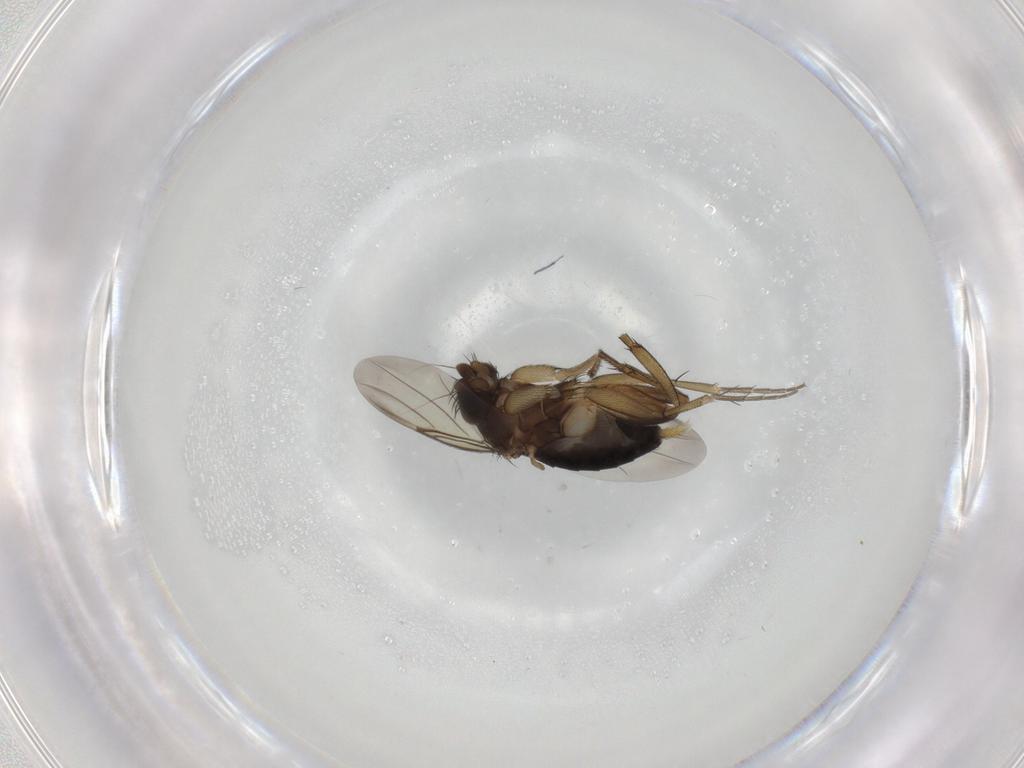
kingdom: Animalia
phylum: Arthropoda
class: Insecta
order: Diptera
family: Phoridae
